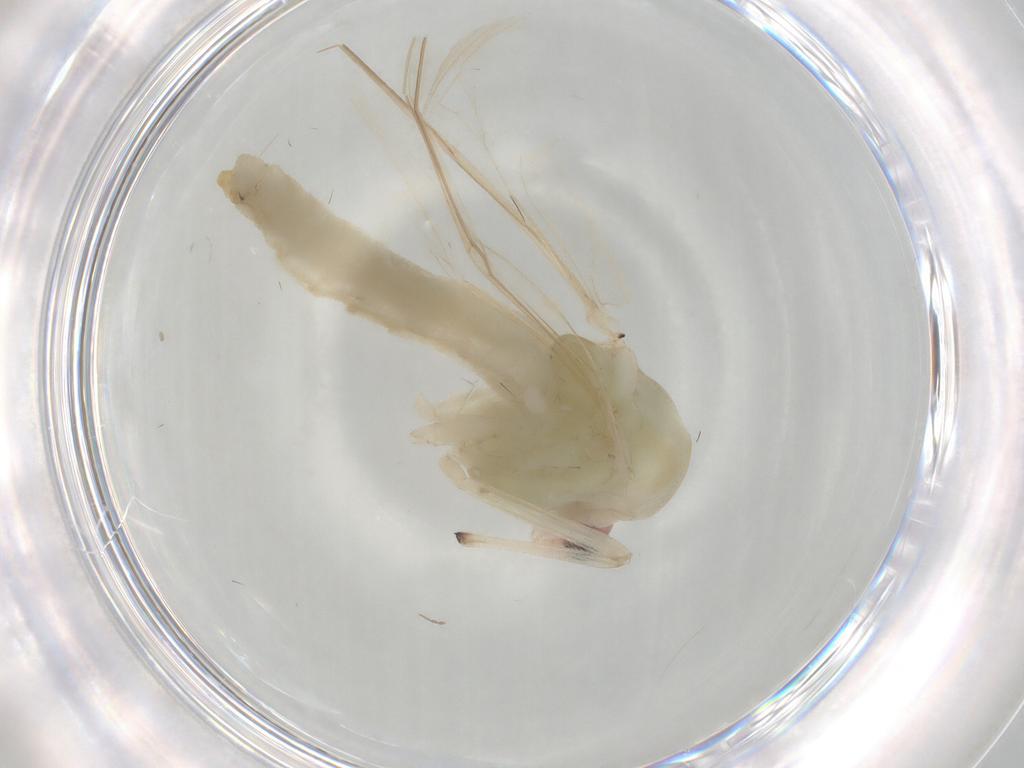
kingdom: Animalia
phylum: Arthropoda
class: Insecta
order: Diptera
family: Chironomidae
